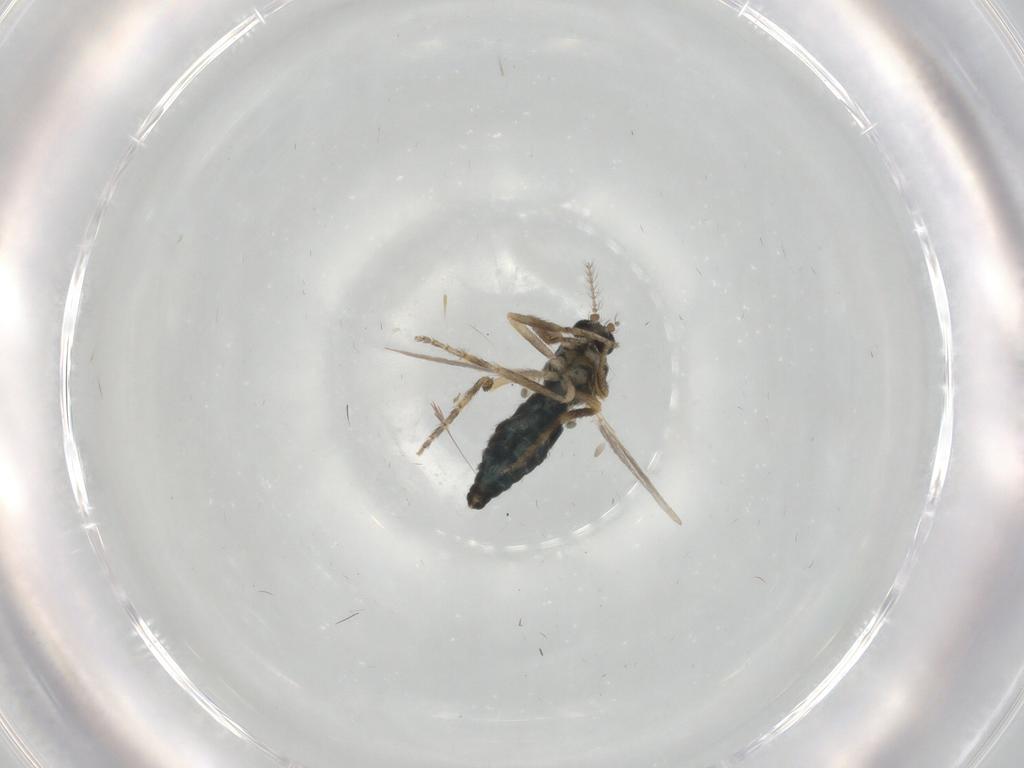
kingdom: Animalia
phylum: Arthropoda
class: Insecta
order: Diptera
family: Ceratopogonidae
